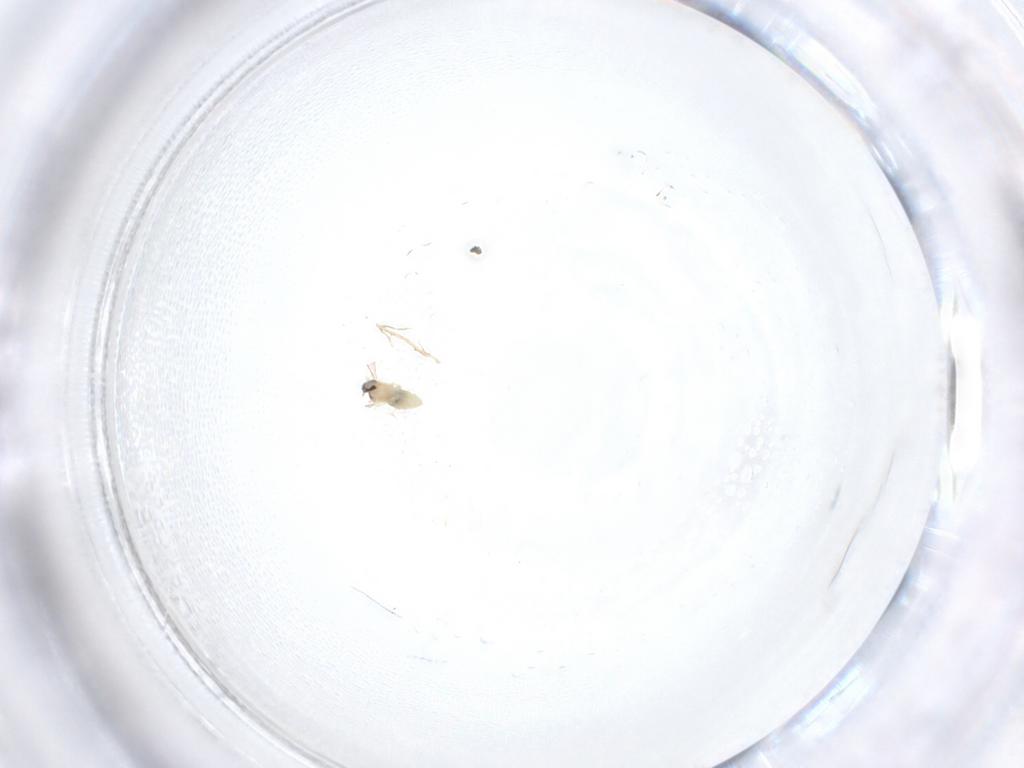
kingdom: Animalia
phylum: Arthropoda
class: Insecta
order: Diptera
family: Cecidomyiidae
